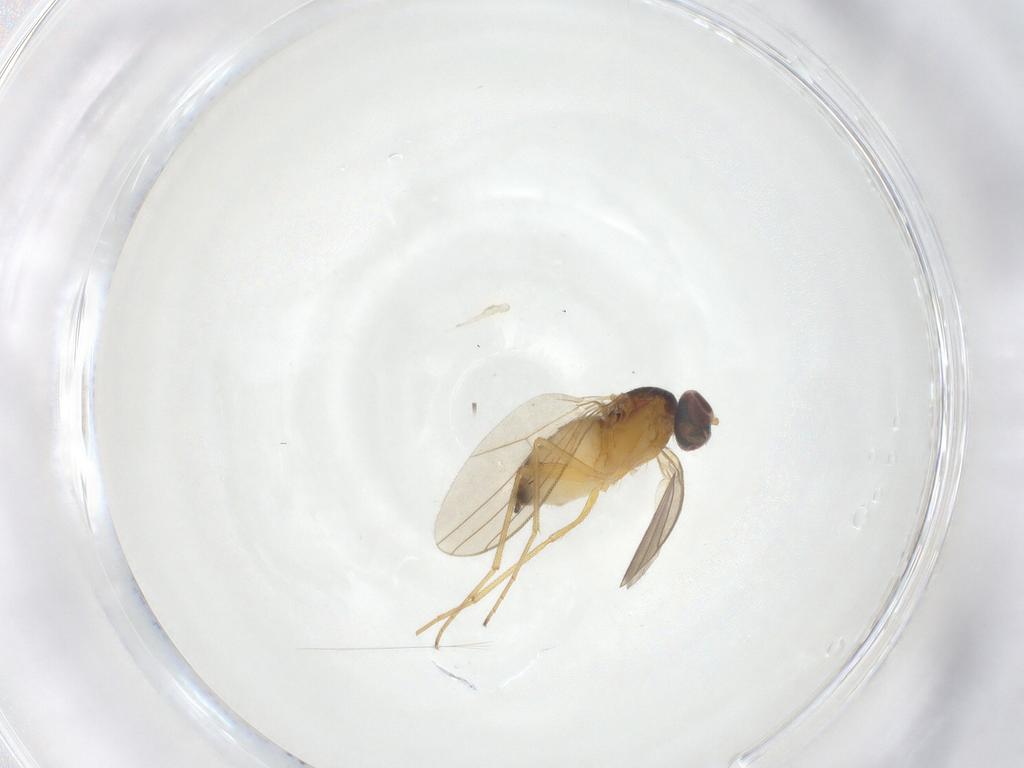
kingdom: Animalia
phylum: Arthropoda
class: Insecta
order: Diptera
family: Dolichopodidae
